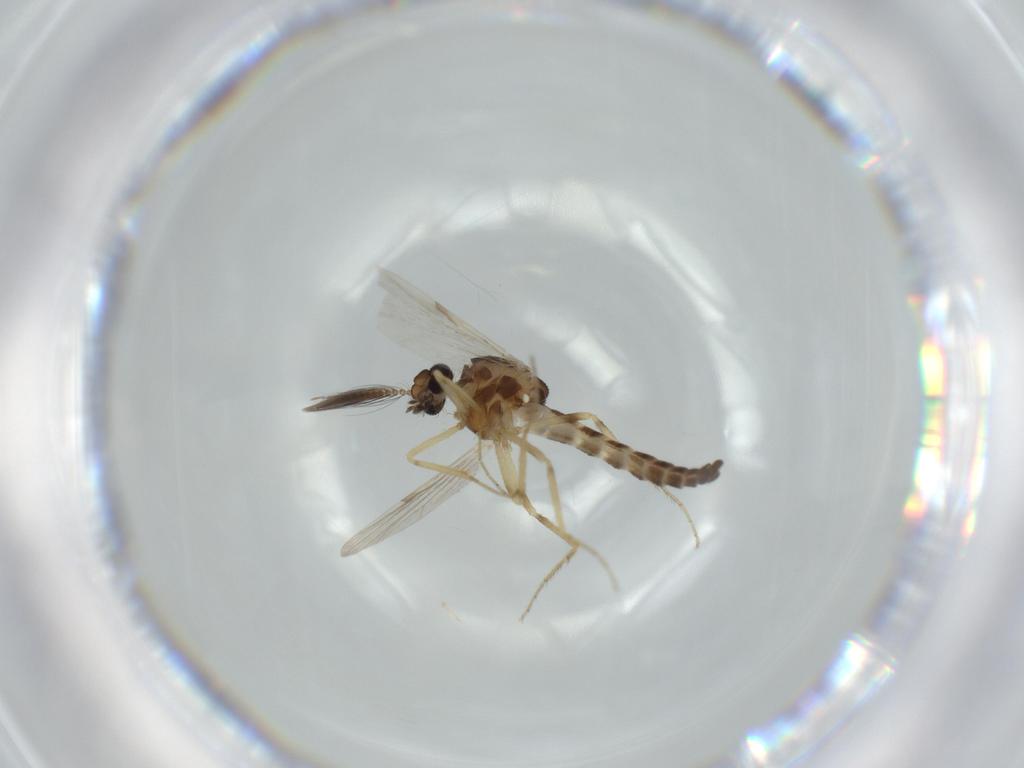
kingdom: Animalia
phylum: Arthropoda
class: Insecta
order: Diptera
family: Ceratopogonidae
